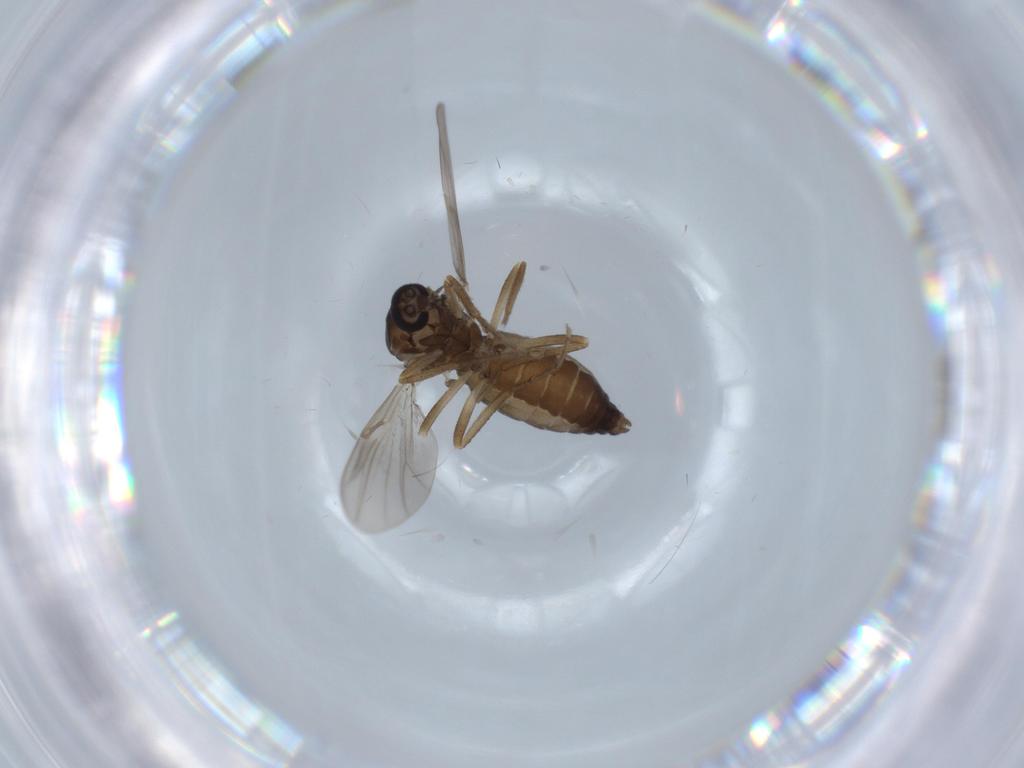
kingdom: Animalia
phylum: Arthropoda
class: Insecta
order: Diptera
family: Ceratopogonidae
